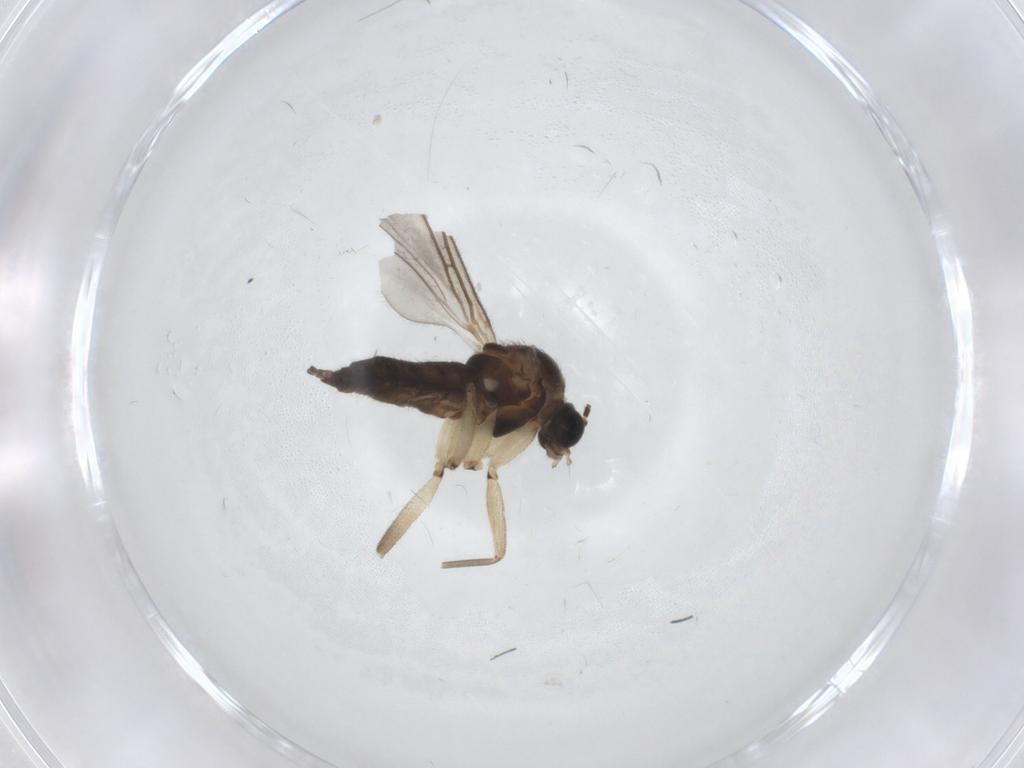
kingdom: Animalia
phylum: Arthropoda
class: Insecta
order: Diptera
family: Sciaridae
